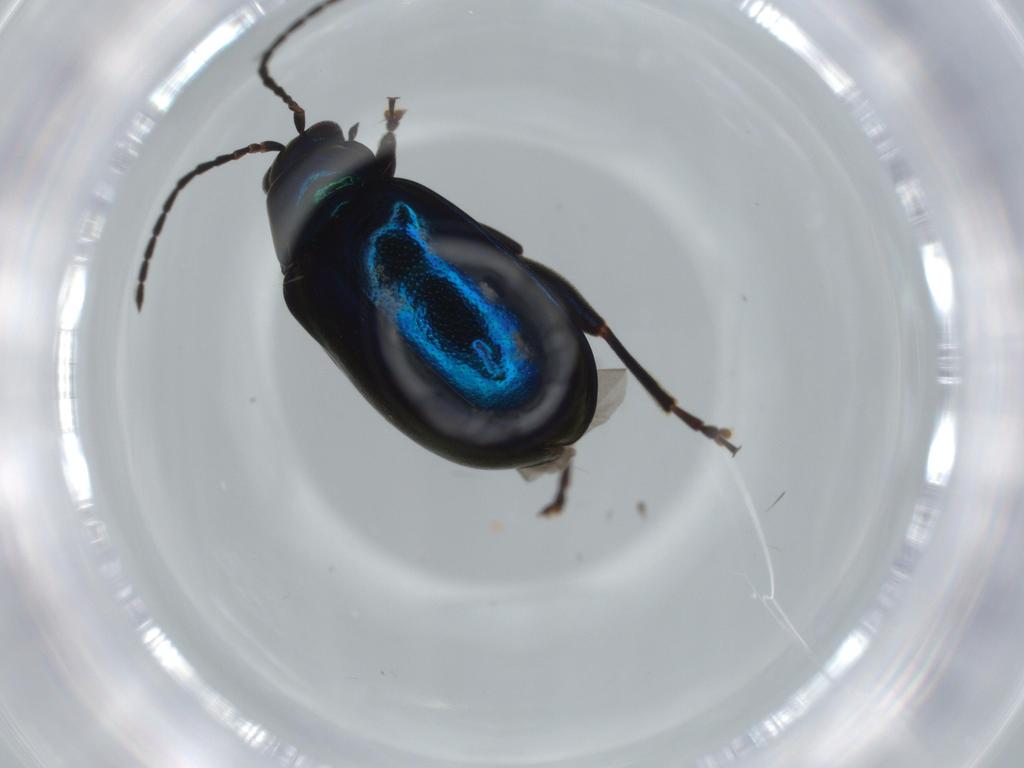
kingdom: Animalia
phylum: Arthropoda
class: Insecta
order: Coleoptera
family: Chrysomelidae
